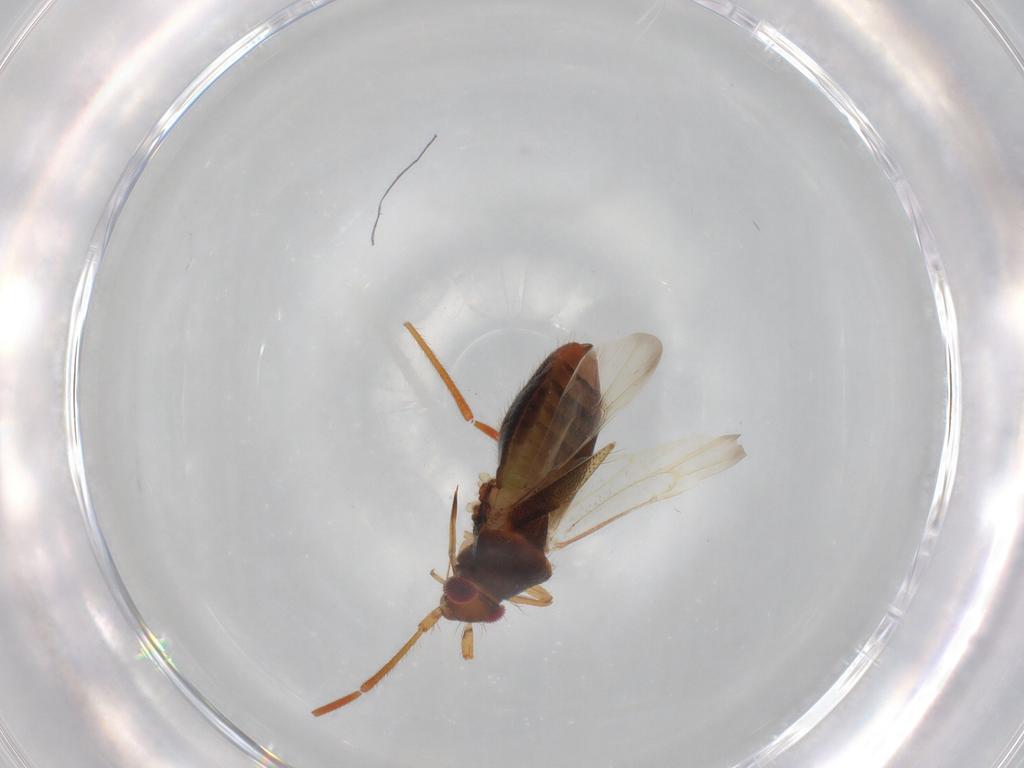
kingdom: Animalia
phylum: Arthropoda
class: Insecta
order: Hemiptera
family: Miridae
